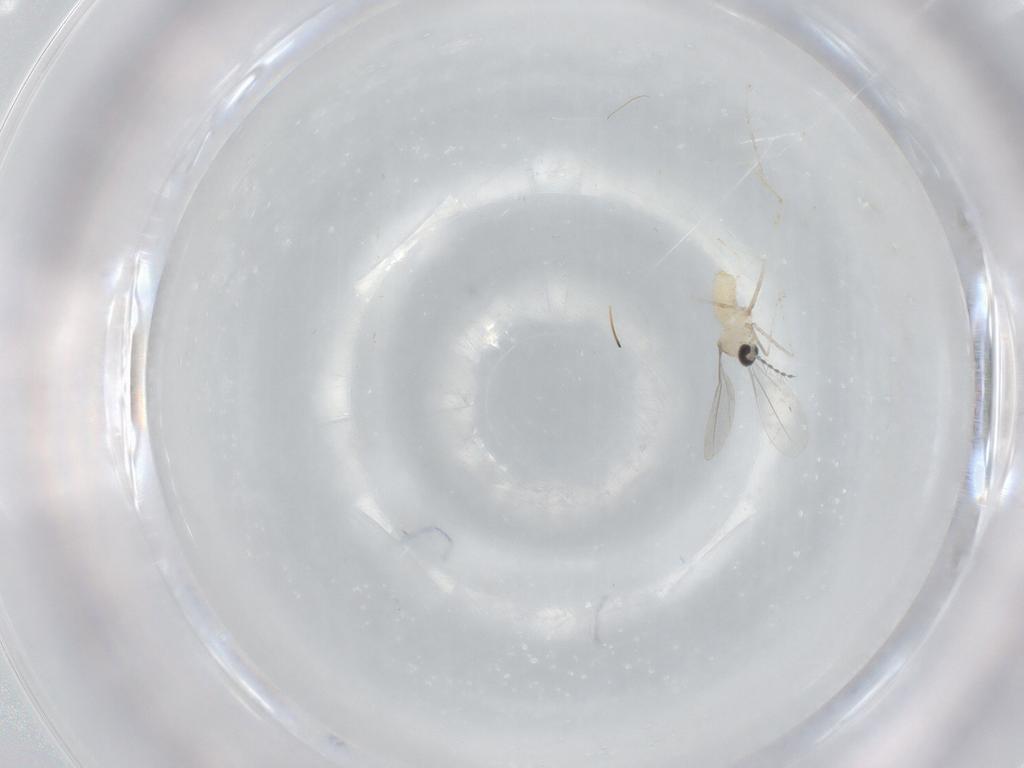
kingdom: Animalia
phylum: Arthropoda
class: Insecta
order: Diptera
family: Cecidomyiidae
